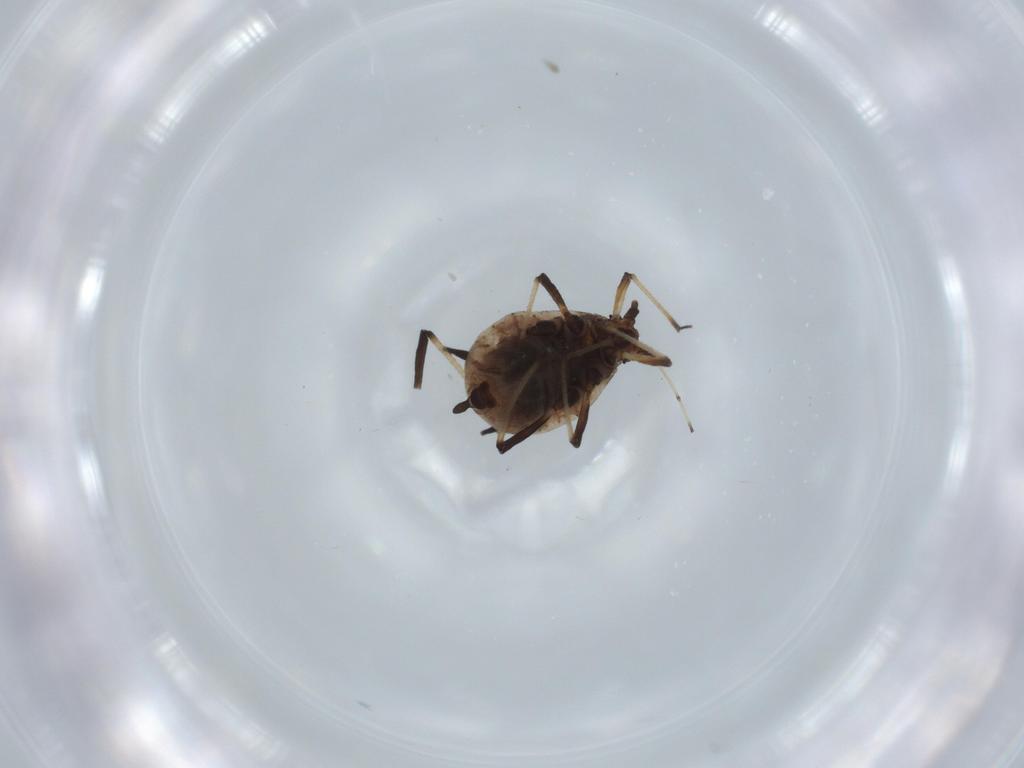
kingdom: Animalia
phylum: Arthropoda
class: Insecta
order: Hemiptera
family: Aphididae
